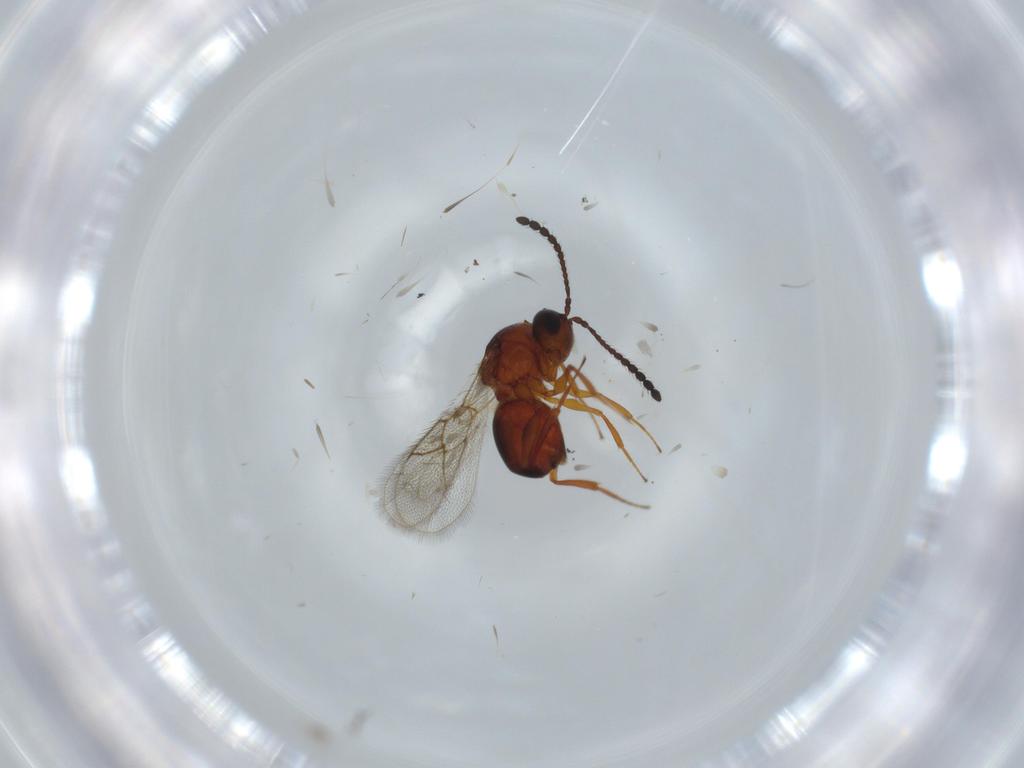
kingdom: Animalia
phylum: Arthropoda
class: Insecta
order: Hymenoptera
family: Figitidae
